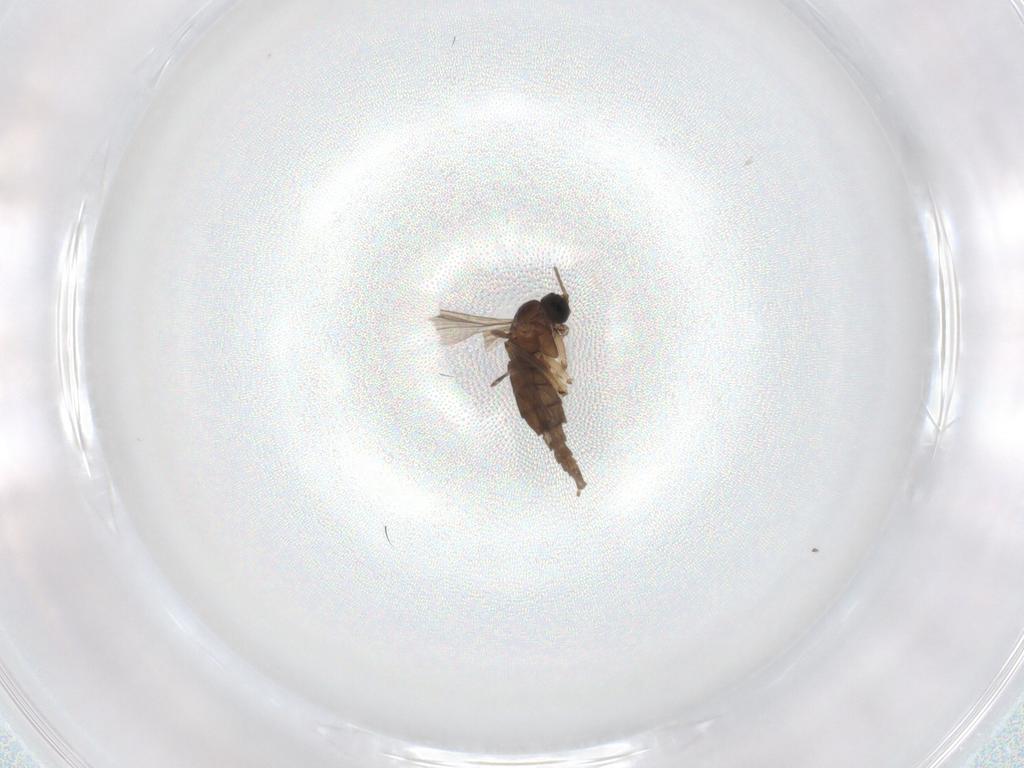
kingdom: Animalia
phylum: Arthropoda
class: Insecta
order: Diptera
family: Sciaridae
